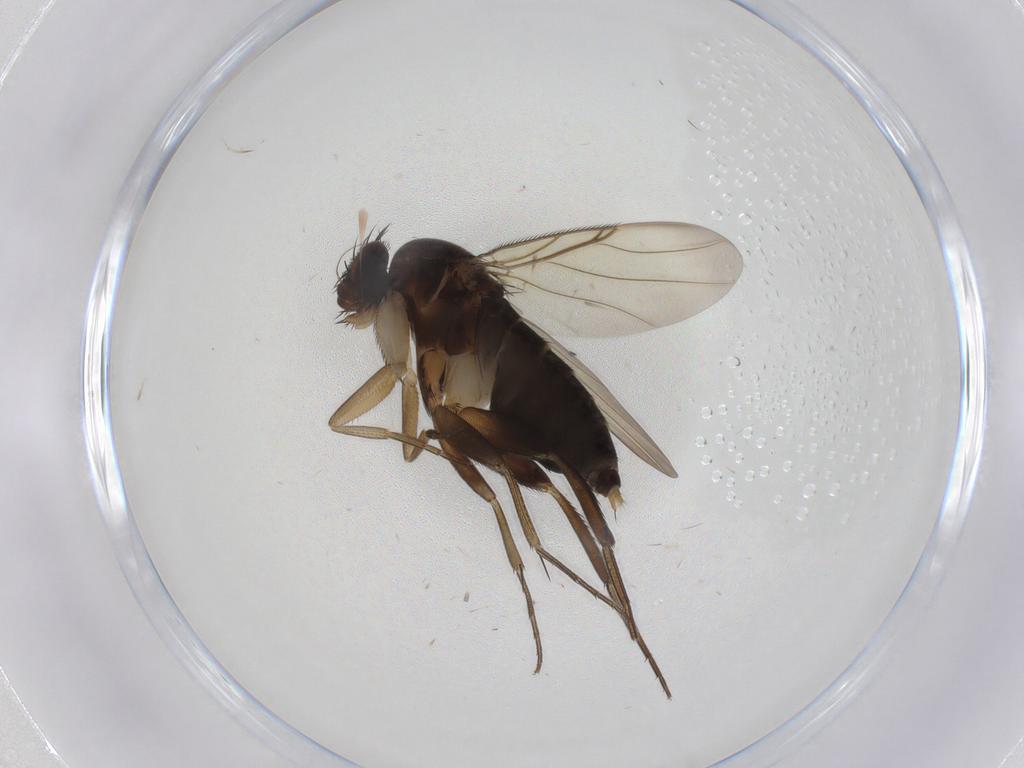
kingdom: Animalia
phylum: Arthropoda
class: Insecta
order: Diptera
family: Phoridae
